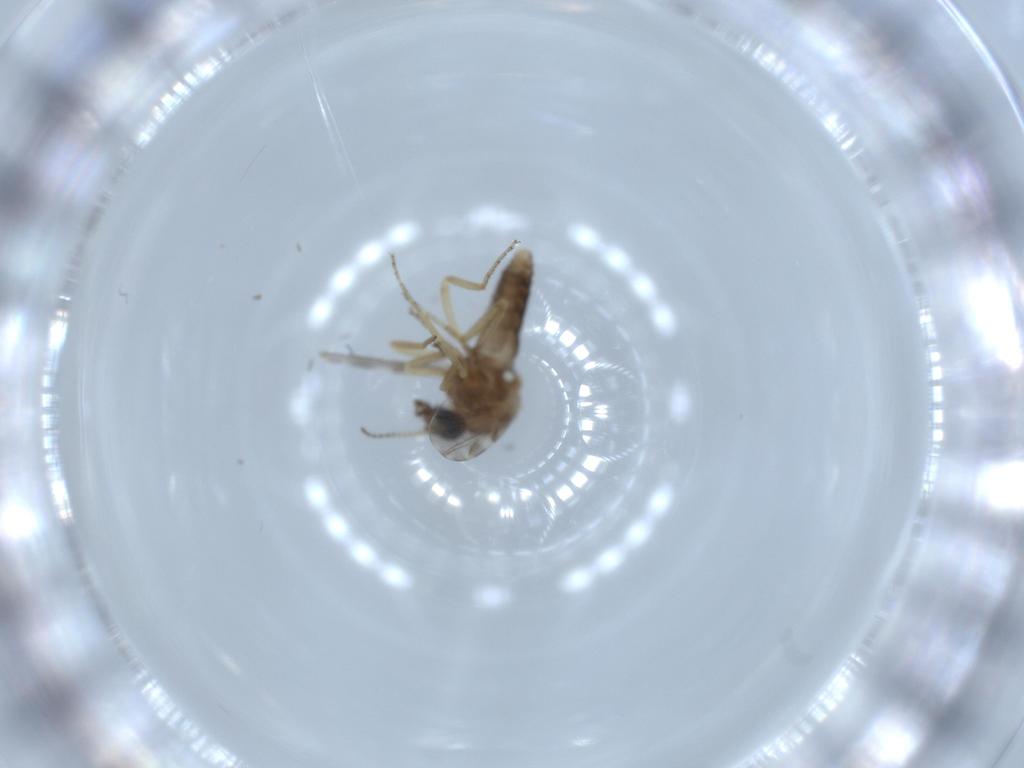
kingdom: Animalia
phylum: Arthropoda
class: Insecta
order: Diptera
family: Ceratopogonidae
